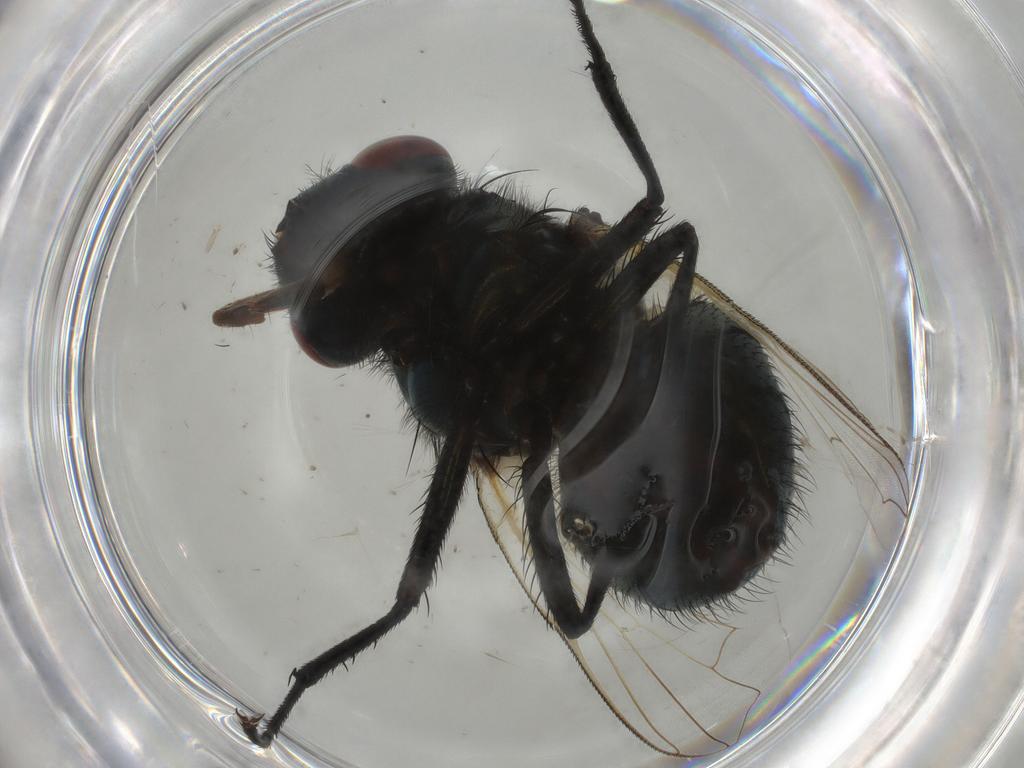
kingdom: Animalia
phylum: Arthropoda
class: Insecta
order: Diptera
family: Muscidae
